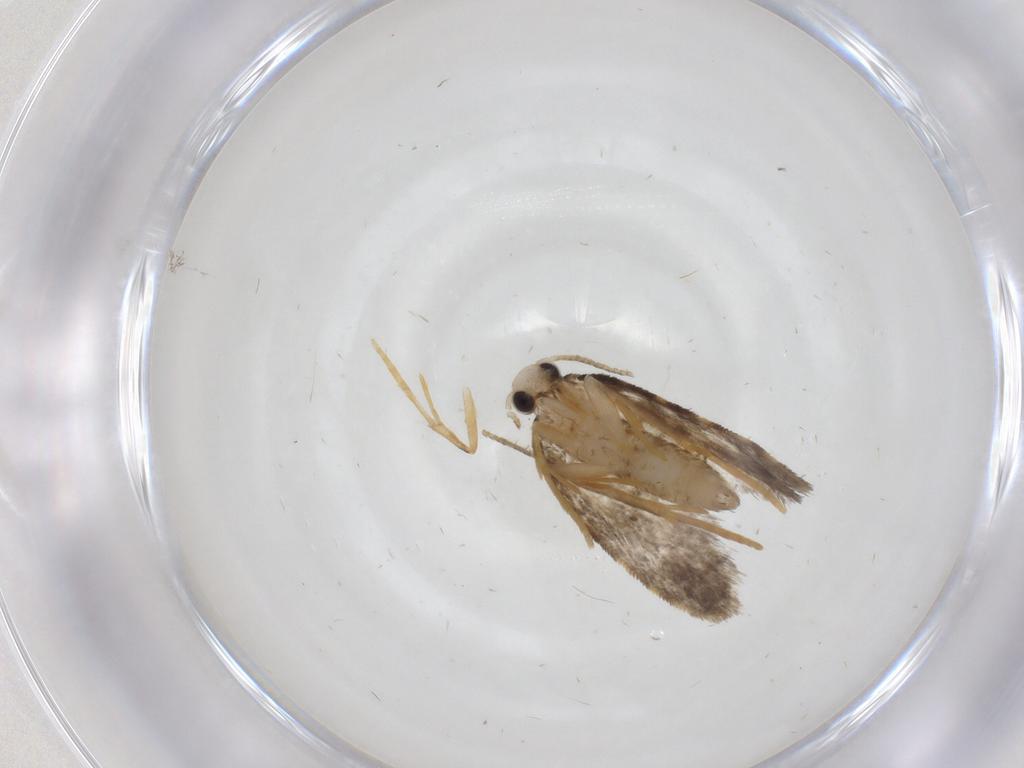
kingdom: Animalia
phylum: Arthropoda
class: Insecta
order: Lepidoptera
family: Psychidae
